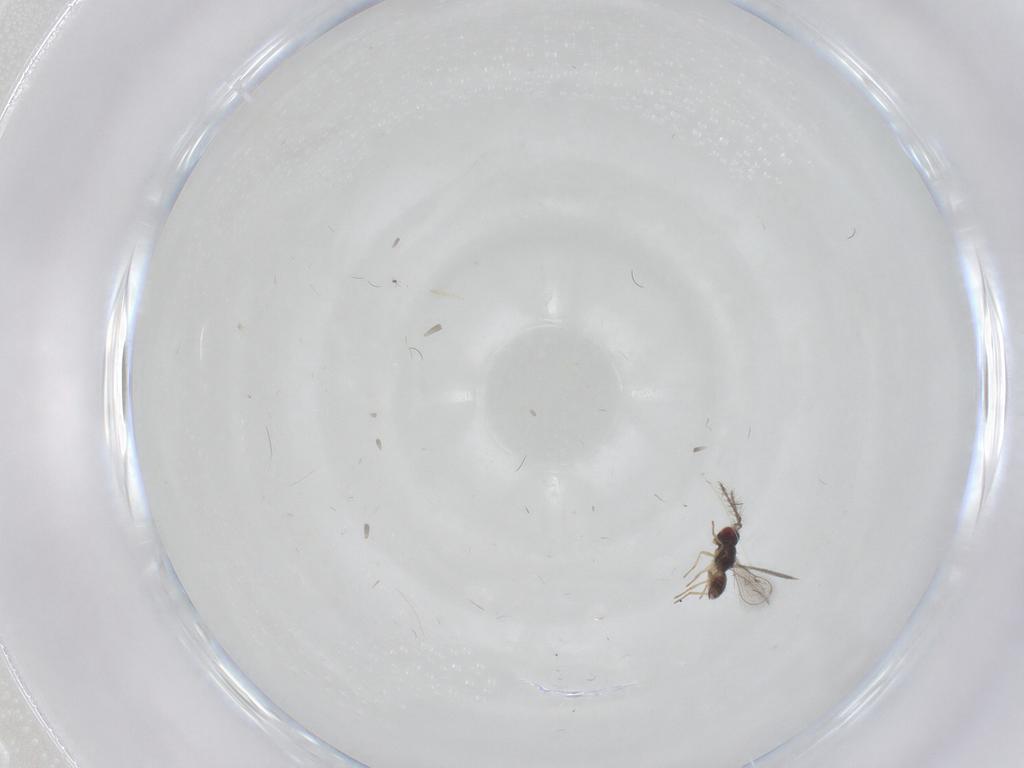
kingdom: Animalia
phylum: Arthropoda
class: Insecta
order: Hymenoptera
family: Eulophidae
